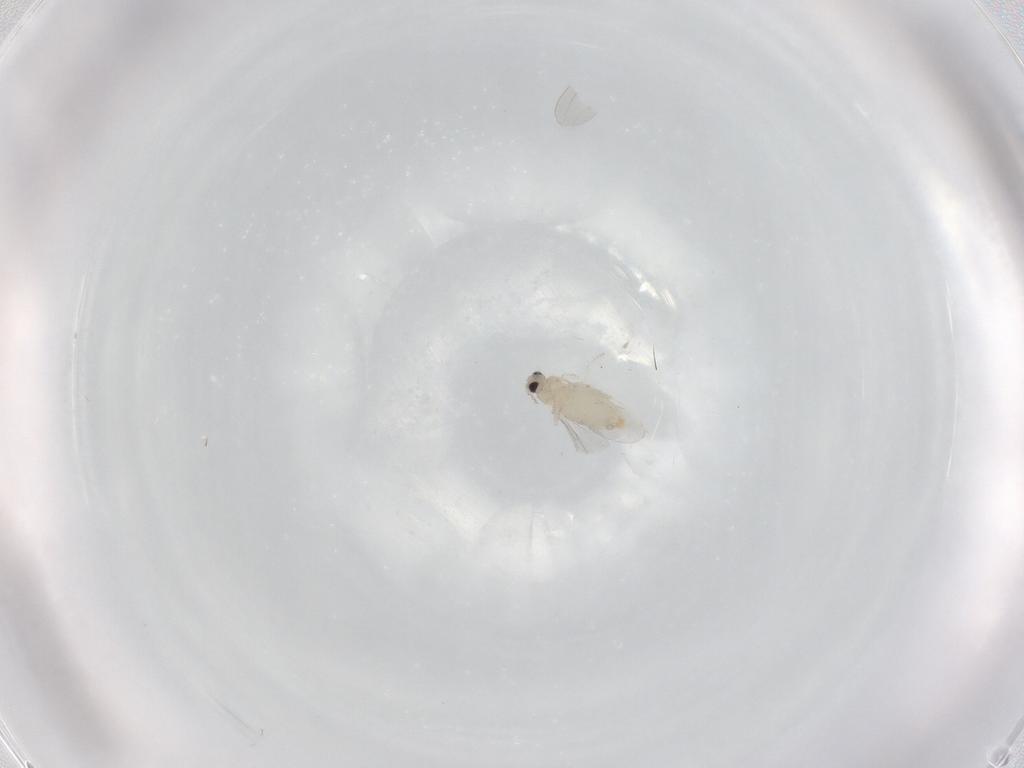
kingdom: Animalia
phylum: Arthropoda
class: Insecta
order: Diptera
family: Cecidomyiidae
